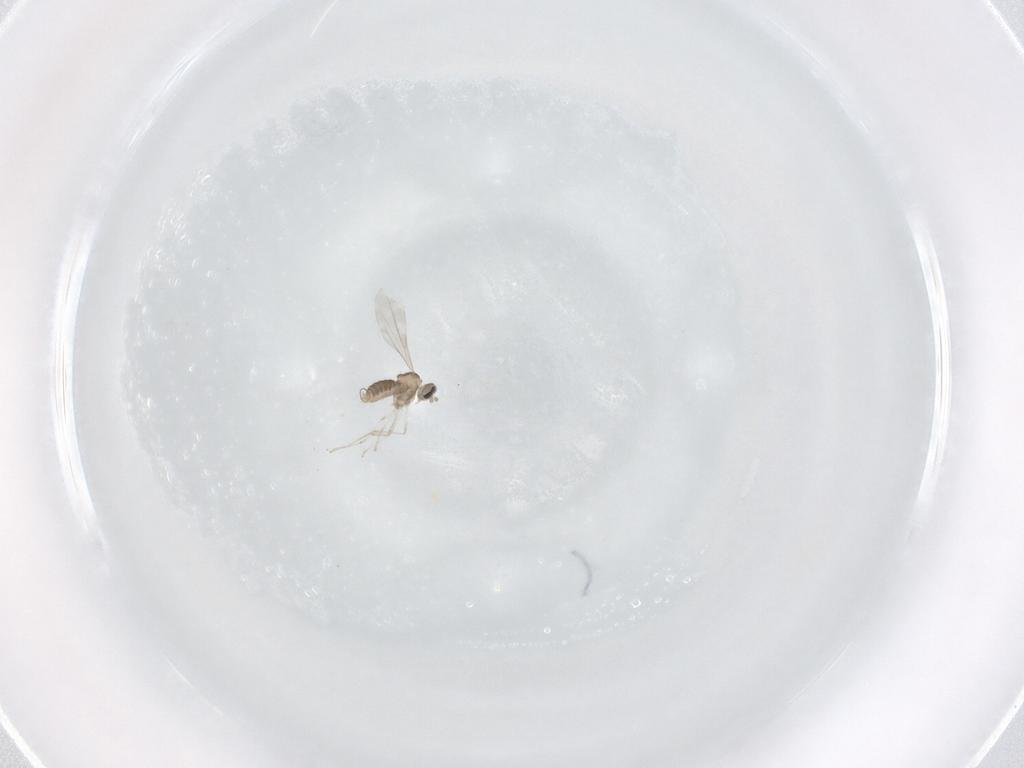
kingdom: Animalia
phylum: Arthropoda
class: Insecta
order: Diptera
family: Cecidomyiidae
